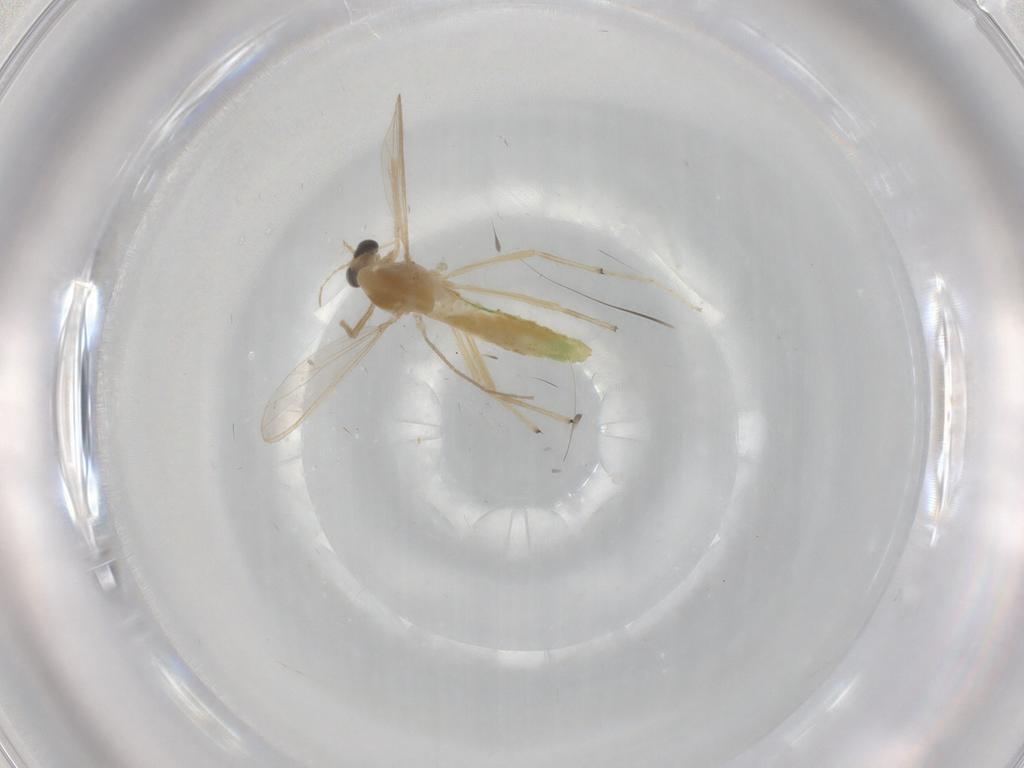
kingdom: Animalia
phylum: Arthropoda
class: Insecta
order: Diptera
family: Chironomidae
